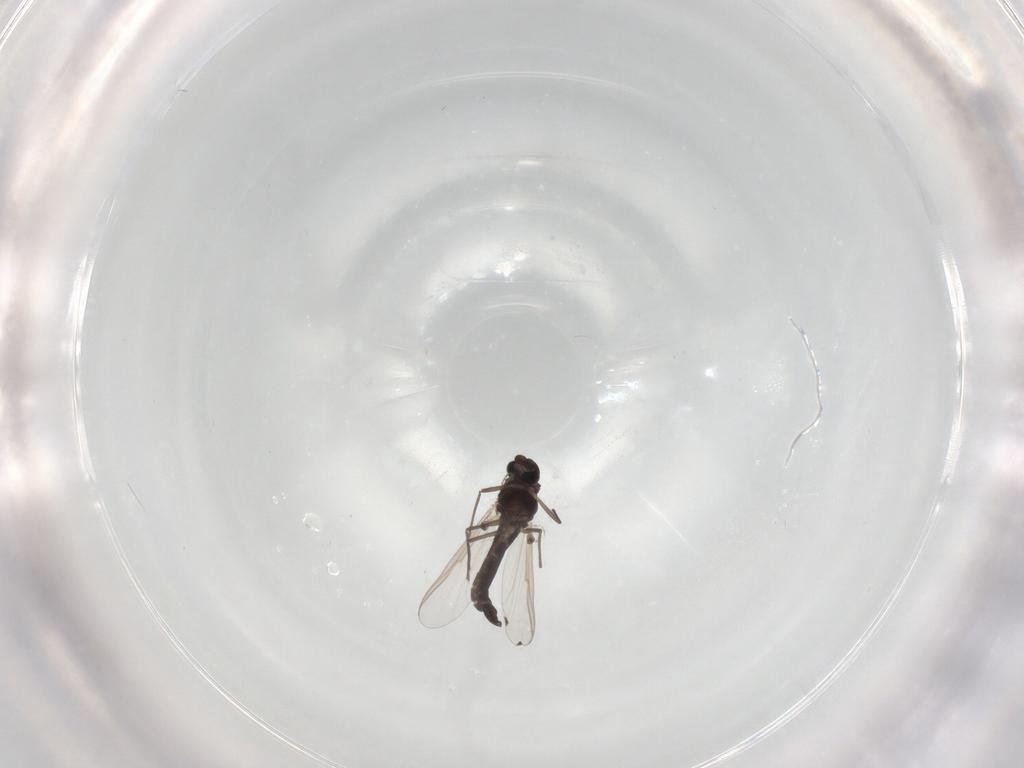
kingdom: Animalia
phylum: Arthropoda
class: Insecta
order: Diptera
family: Chironomidae
